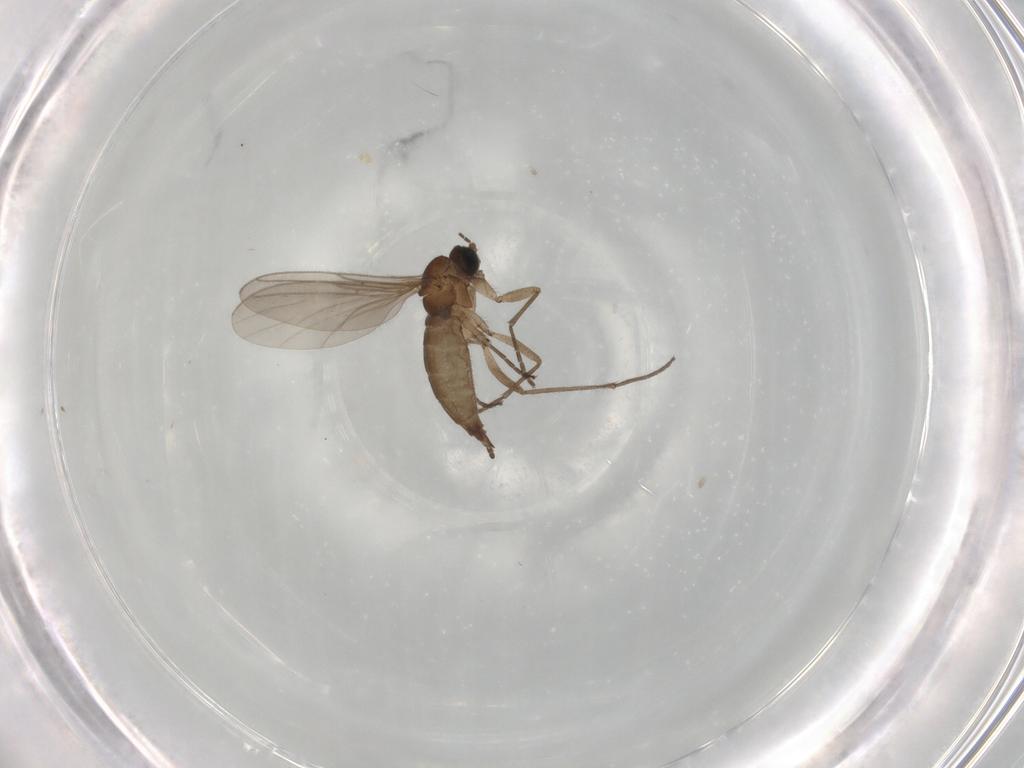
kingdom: Animalia
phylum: Arthropoda
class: Insecta
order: Diptera
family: Sciaridae
